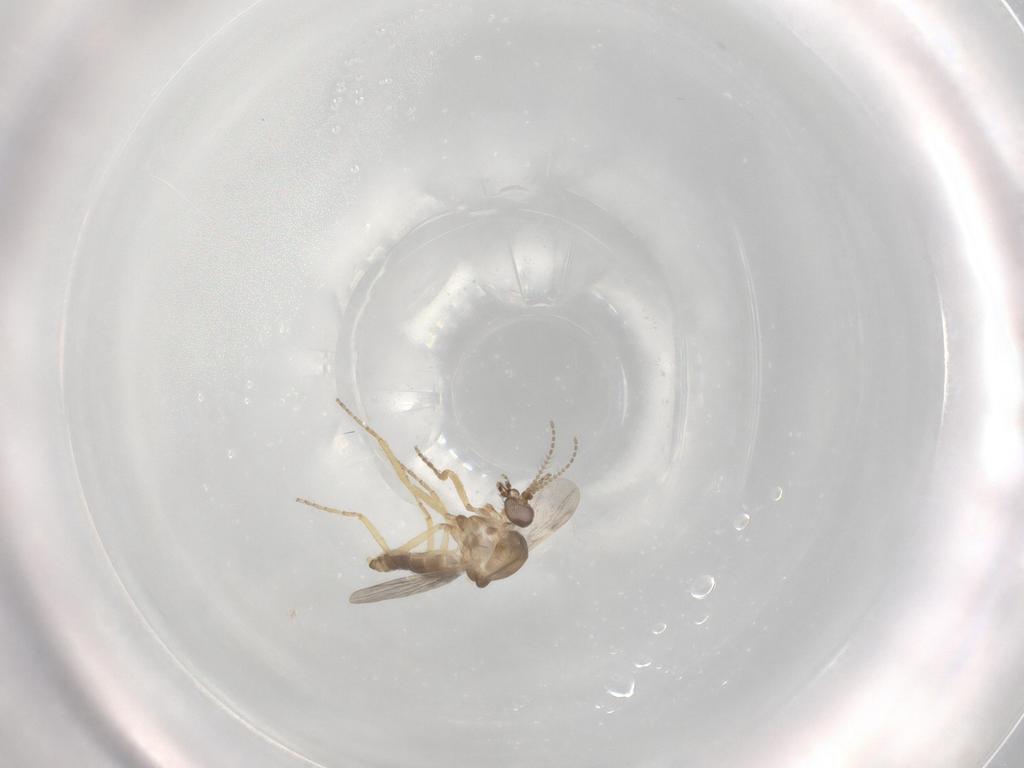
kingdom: Animalia
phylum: Arthropoda
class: Insecta
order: Diptera
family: Ceratopogonidae
